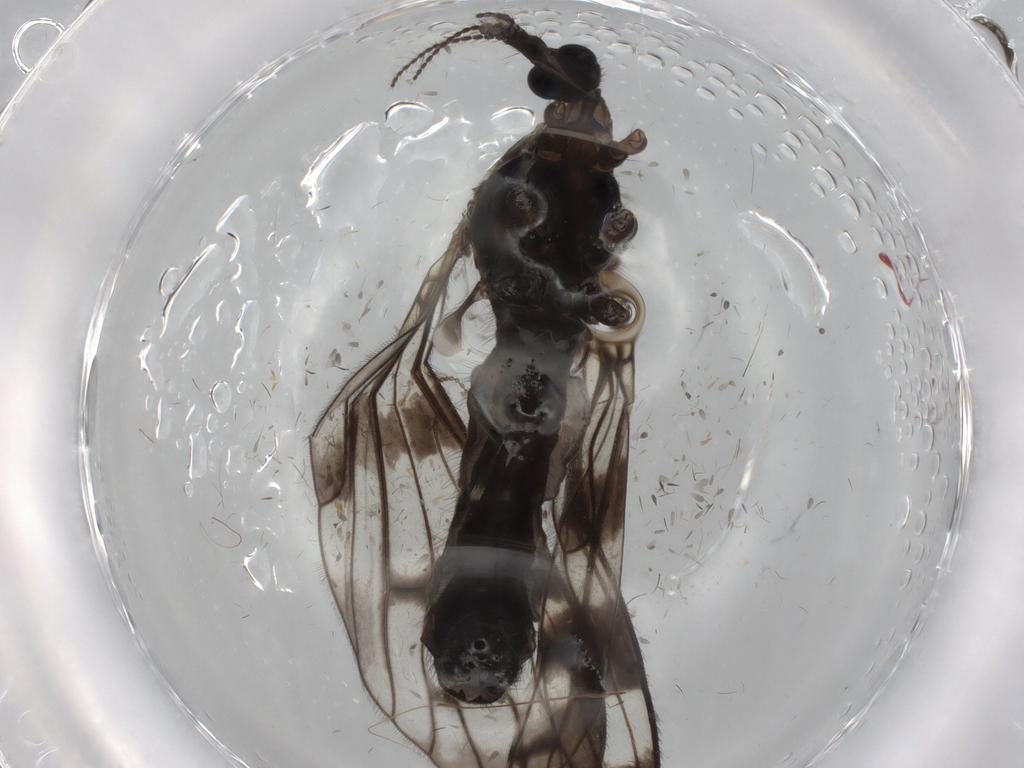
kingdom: Animalia
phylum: Arthropoda
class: Insecta
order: Diptera
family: Limoniidae
